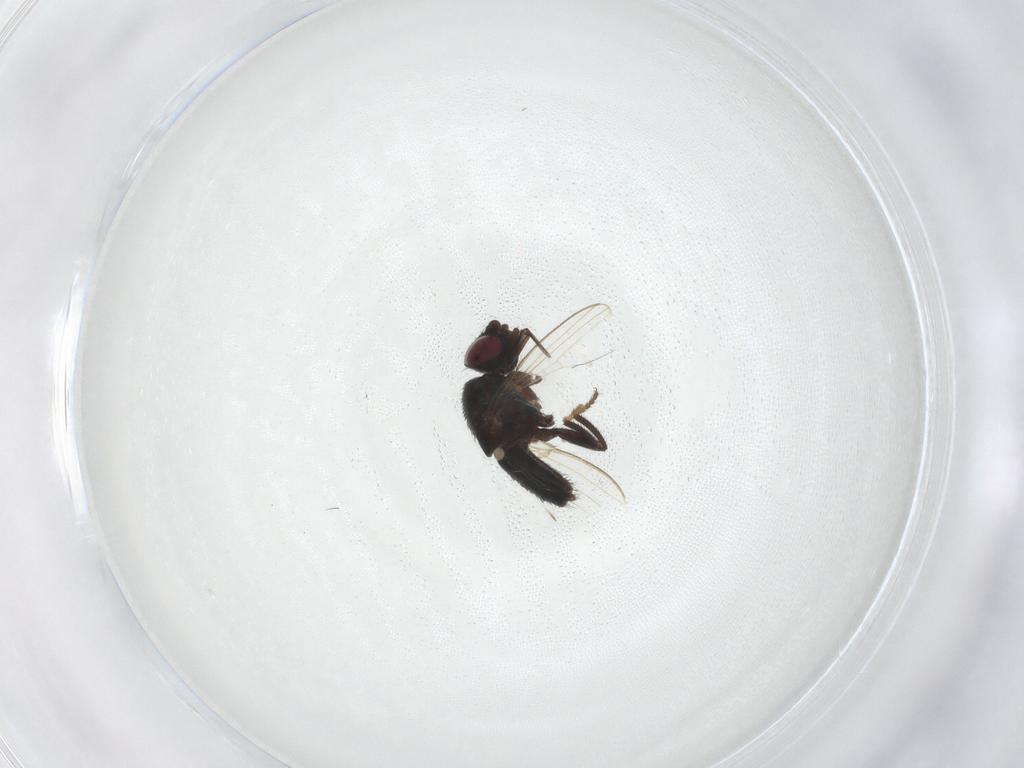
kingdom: Animalia
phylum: Arthropoda
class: Insecta
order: Diptera
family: Milichiidae
